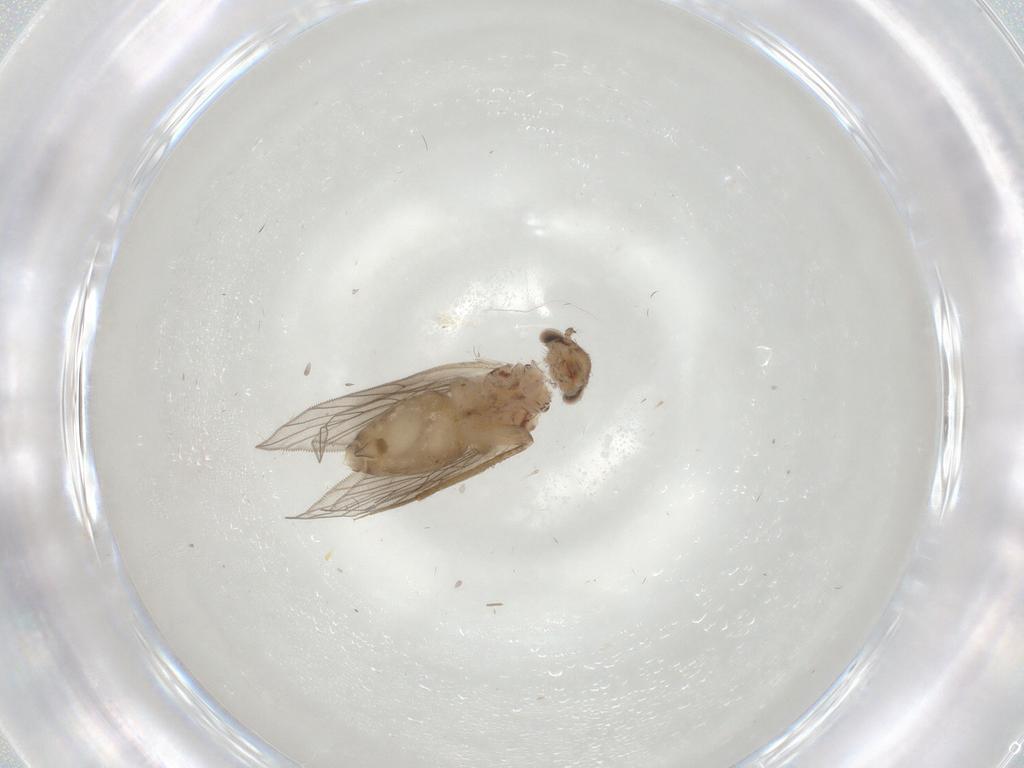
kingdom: Animalia
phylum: Arthropoda
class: Insecta
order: Psocodea
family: Lepidopsocidae
